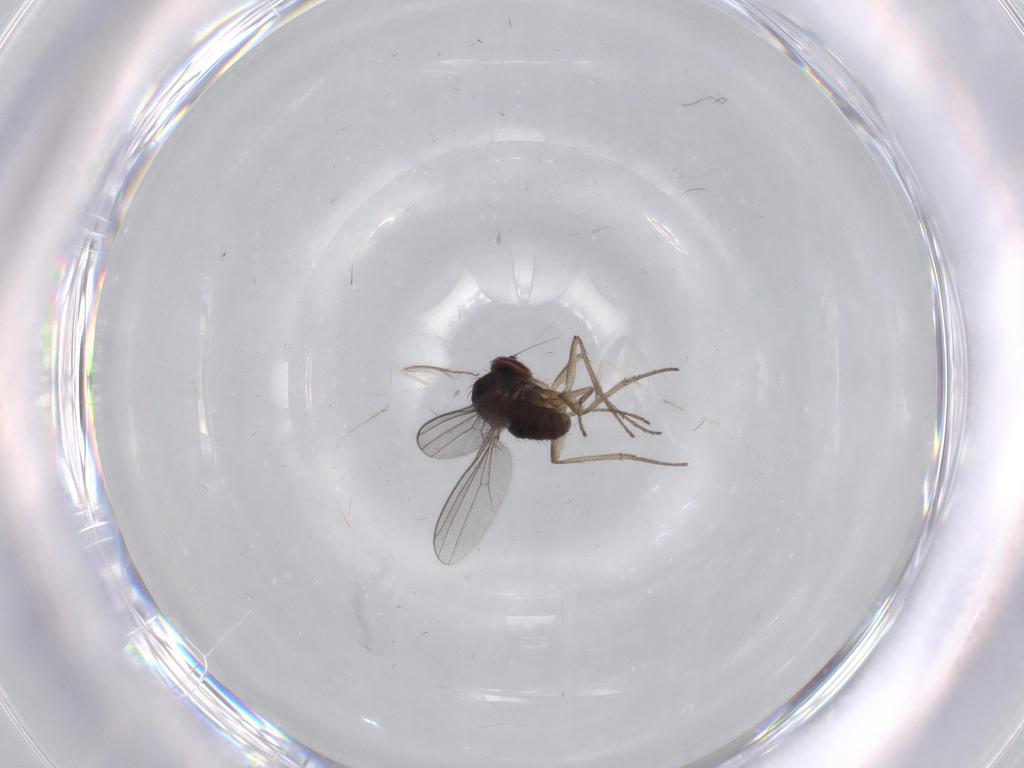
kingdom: Animalia
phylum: Arthropoda
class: Insecta
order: Diptera
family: Dolichopodidae
